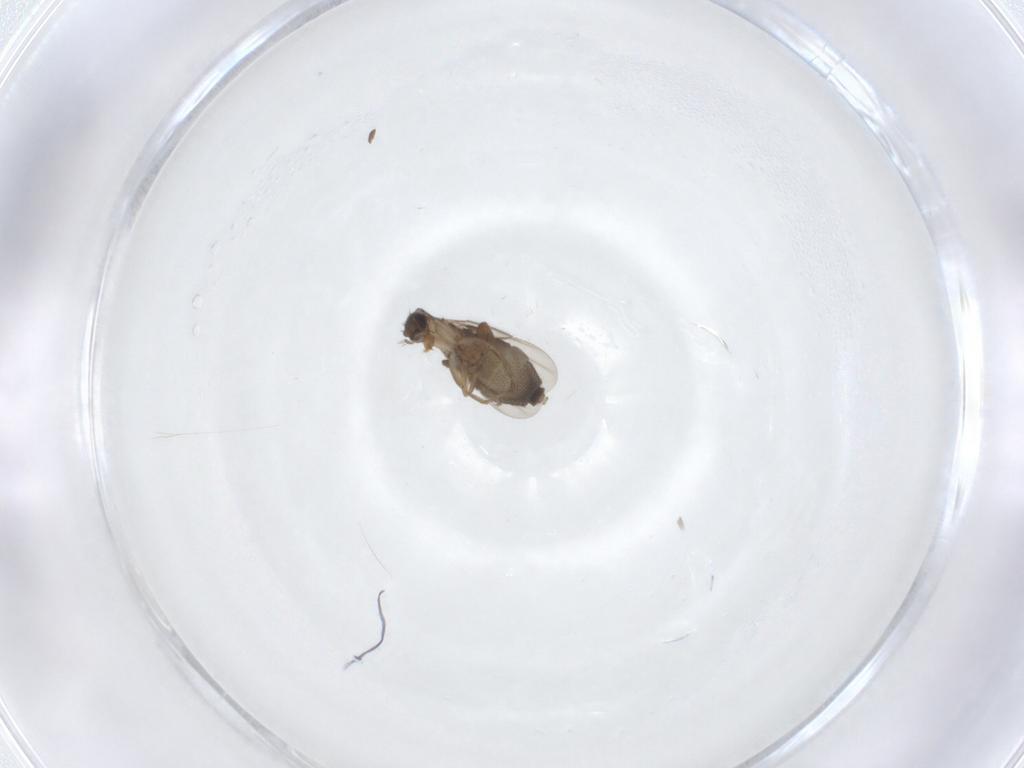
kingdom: Animalia
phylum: Arthropoda
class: Insecta
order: Diptera
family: Phoridae
